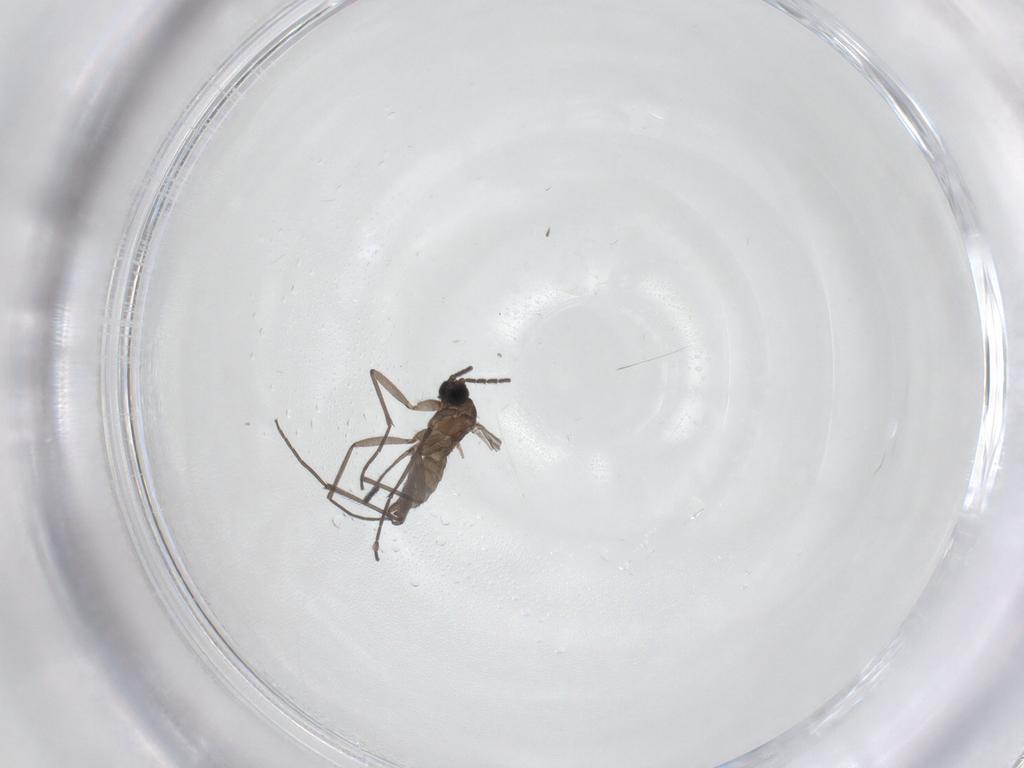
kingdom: Animalia
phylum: Arthropoda
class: Insecta
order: Diptera
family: Sciaridae
